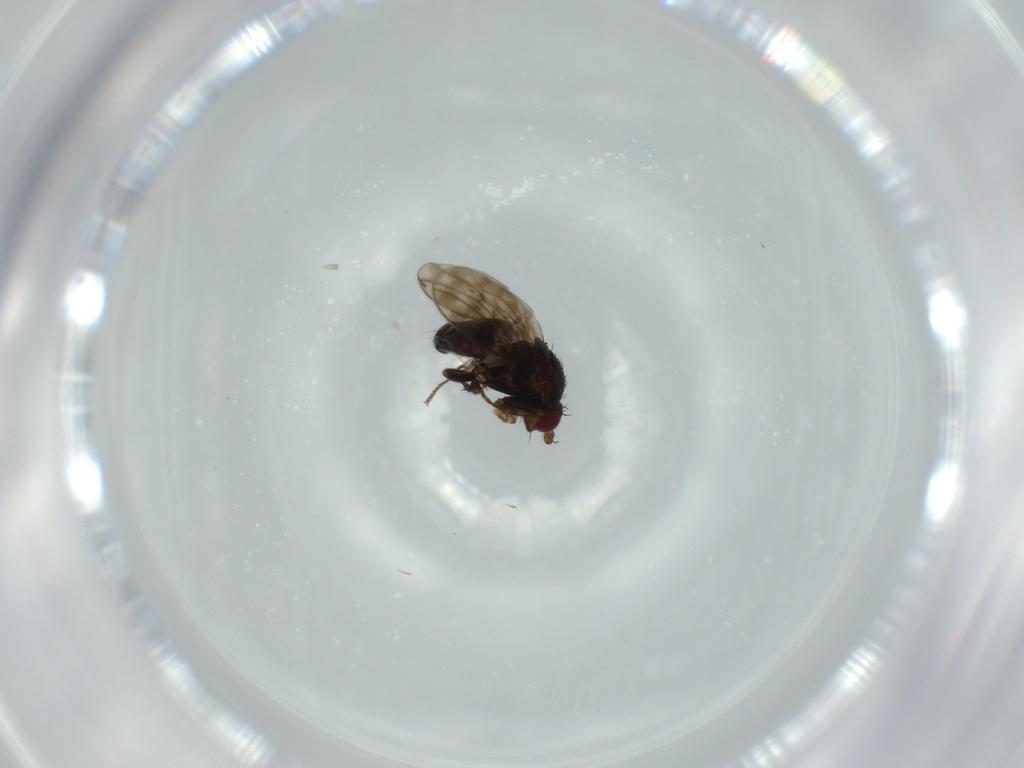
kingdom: Animalia
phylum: Arthropoda
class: Insecta
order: Diptera
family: Sphaeroceridae
